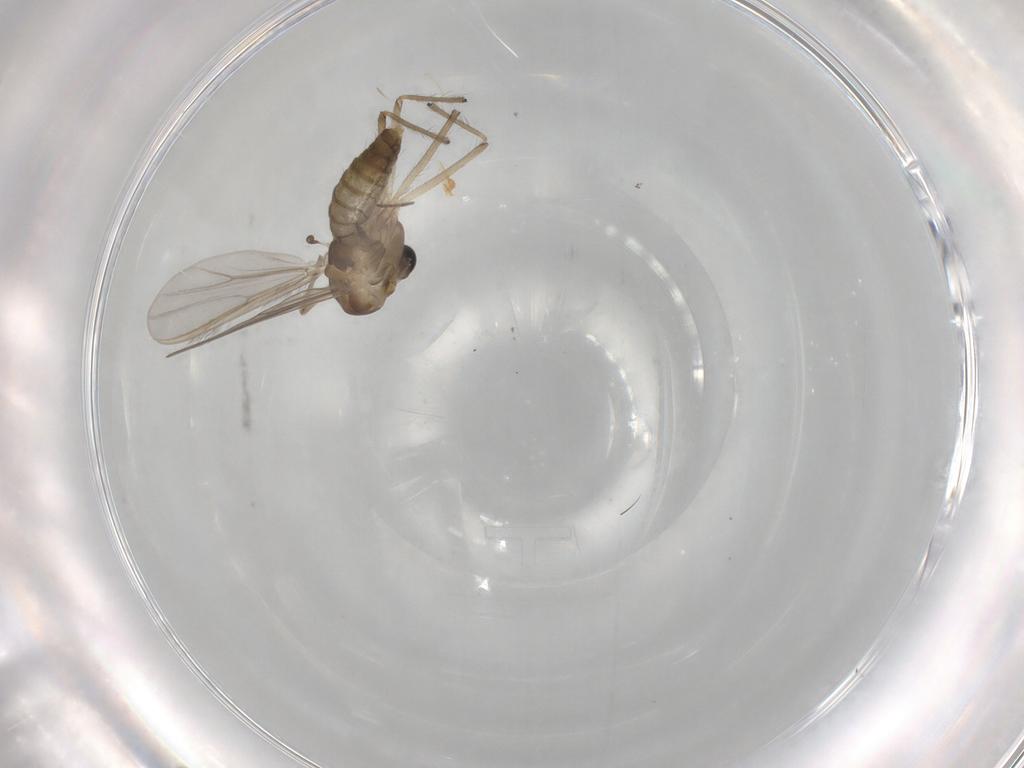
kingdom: Animalia
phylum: Arthropoda
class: Insecta
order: Diptera
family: Chironomidae
